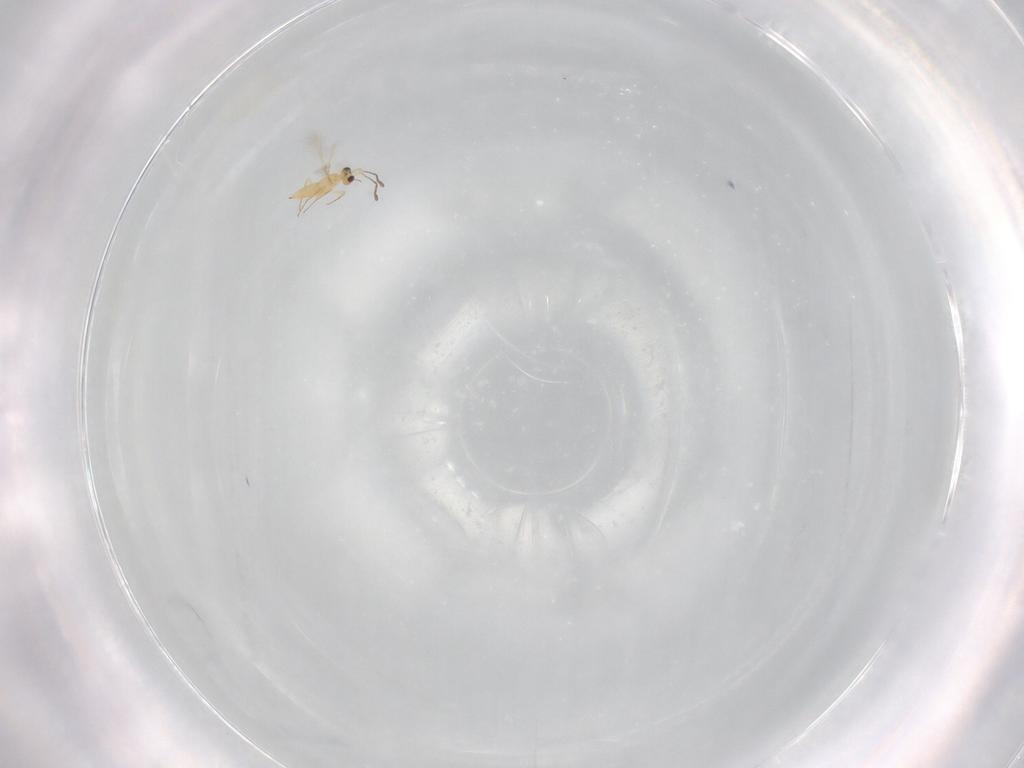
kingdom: Animalia
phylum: Arthropoda
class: Insecta
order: Hymenoptera
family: Mymaridae
